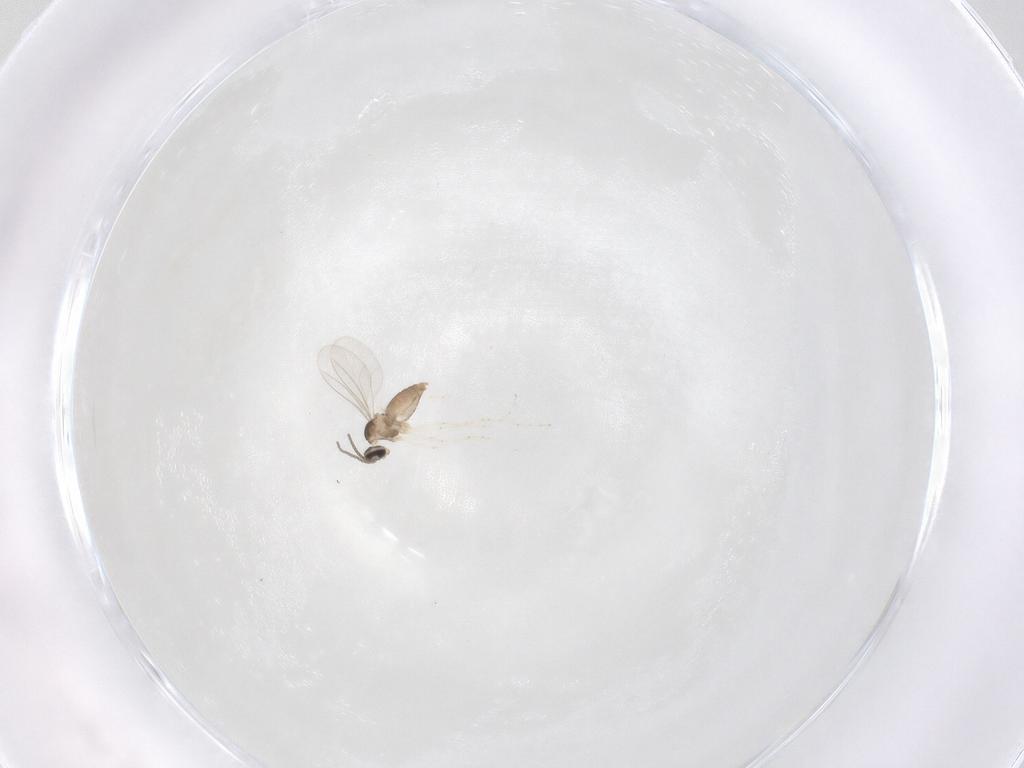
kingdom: Animalia
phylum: Arthropoda
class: Insecta
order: Diptera
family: Cecidomyiidae
